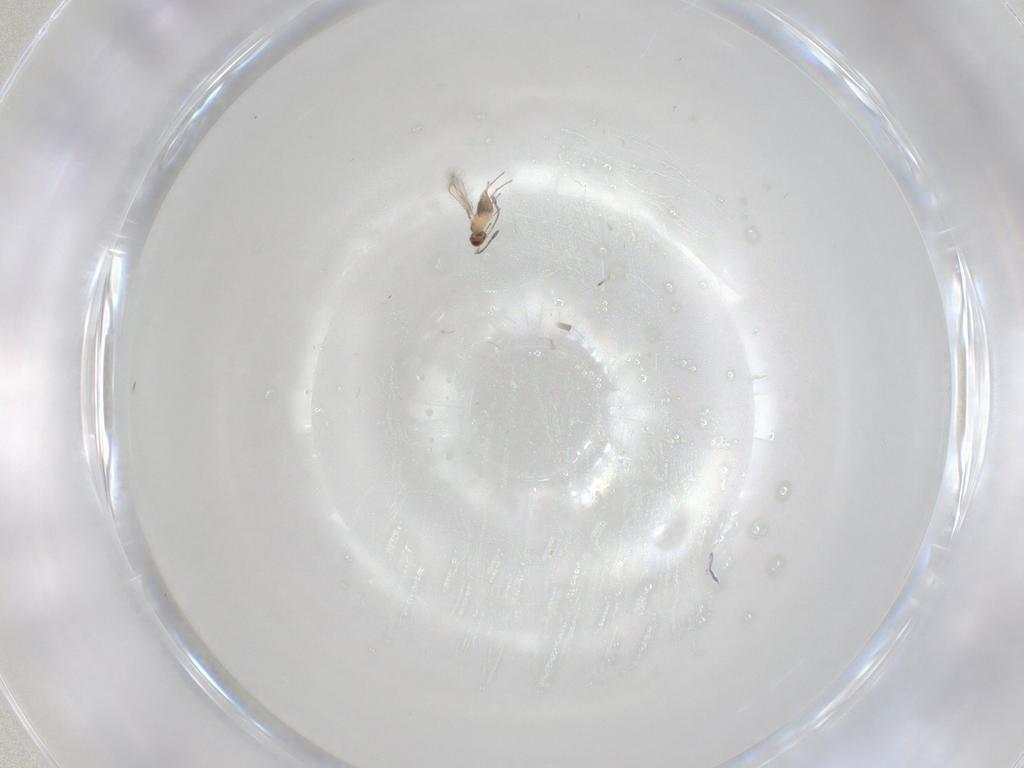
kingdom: Animalia
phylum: Arthropoda
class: Insecta
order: Hymenoptera
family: Mymaridae
